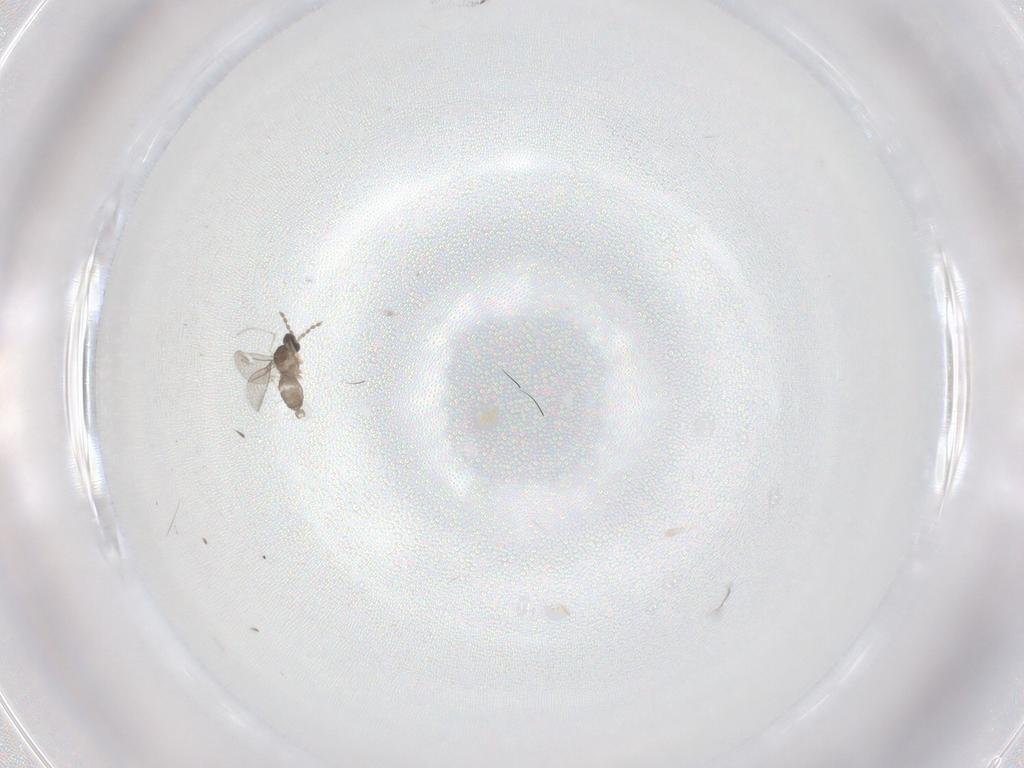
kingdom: Animalia
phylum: Arthropoda
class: Insecta
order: Diptera
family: Cecidomyiidae
